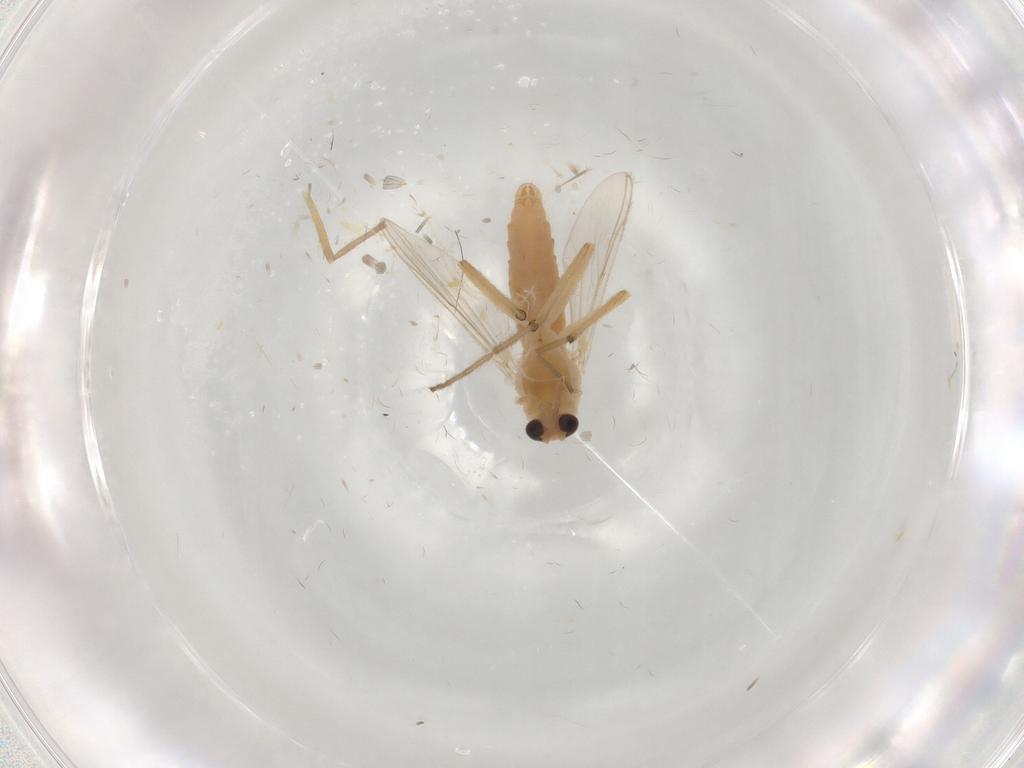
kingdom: Animalia
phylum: Arthropoda
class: Insecta
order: Diptera
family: Chironomidae
